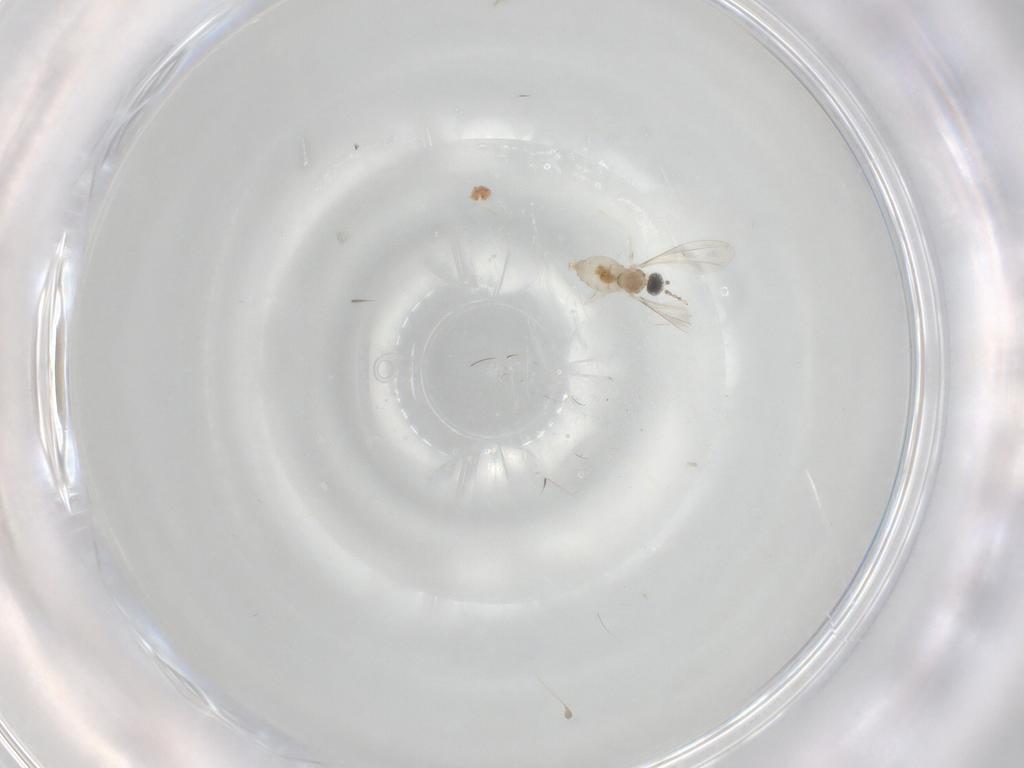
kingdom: Animalia
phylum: Arthropoda
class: Insecta
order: Diptera
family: Cecidomyiidae
